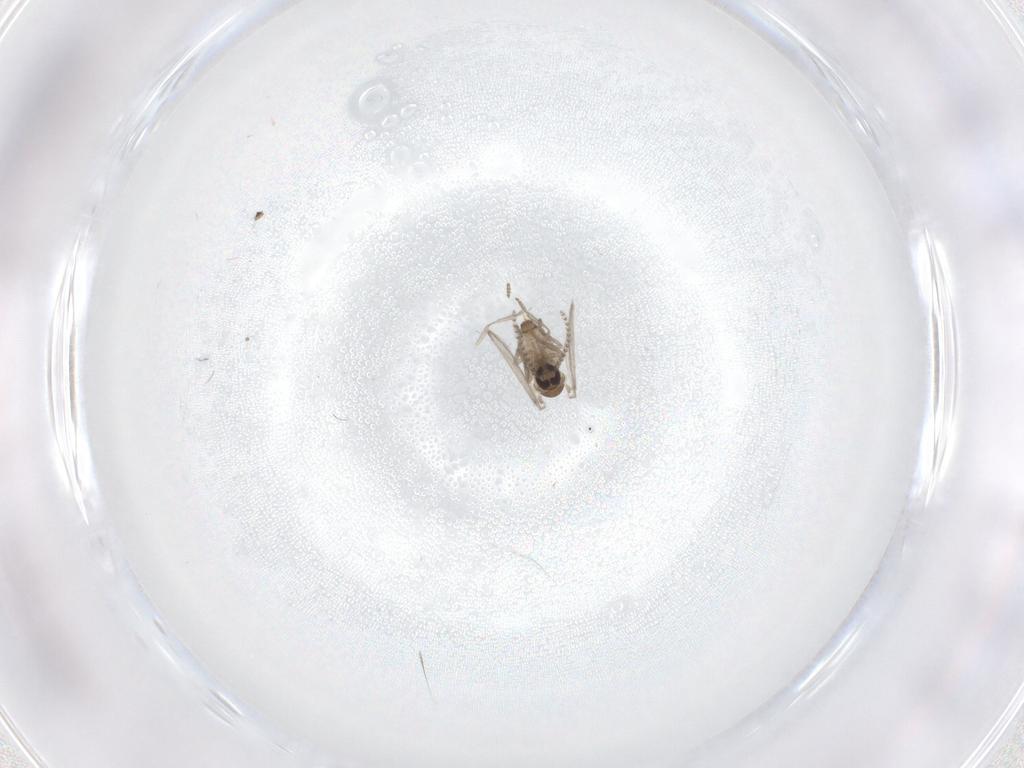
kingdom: Animalia
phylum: Arthropoda
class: Insecta
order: Diptera
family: Psychodidae
